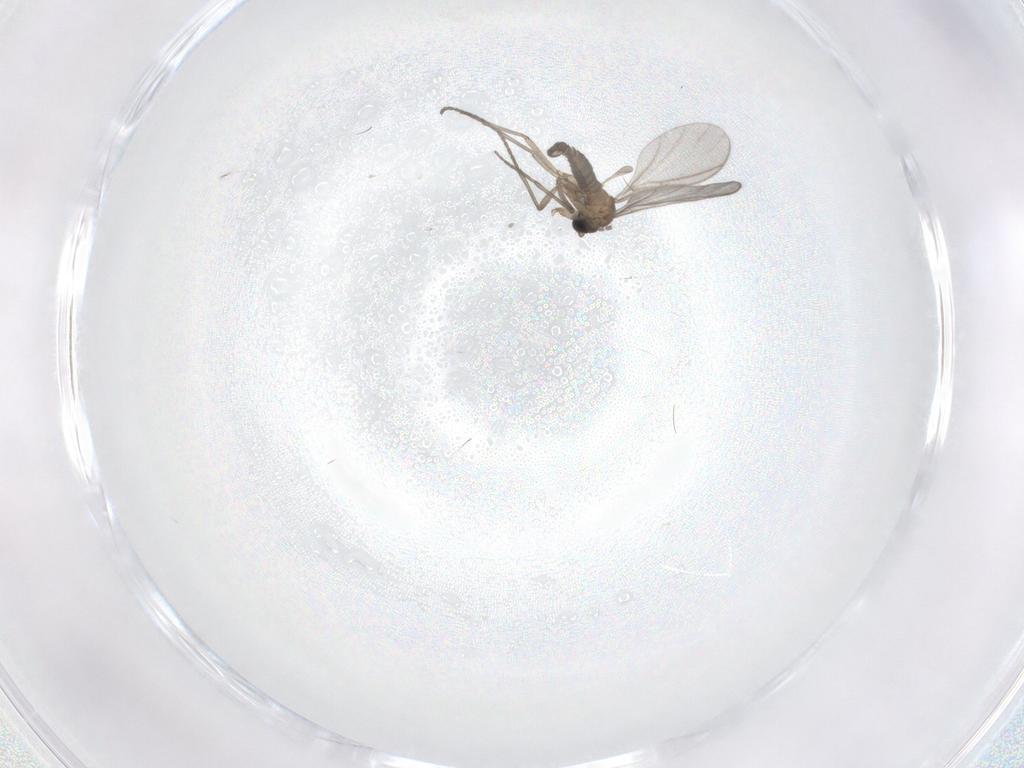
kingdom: Animalia
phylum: Arthropoda
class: Insecta
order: Diptera
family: Sciaridae
